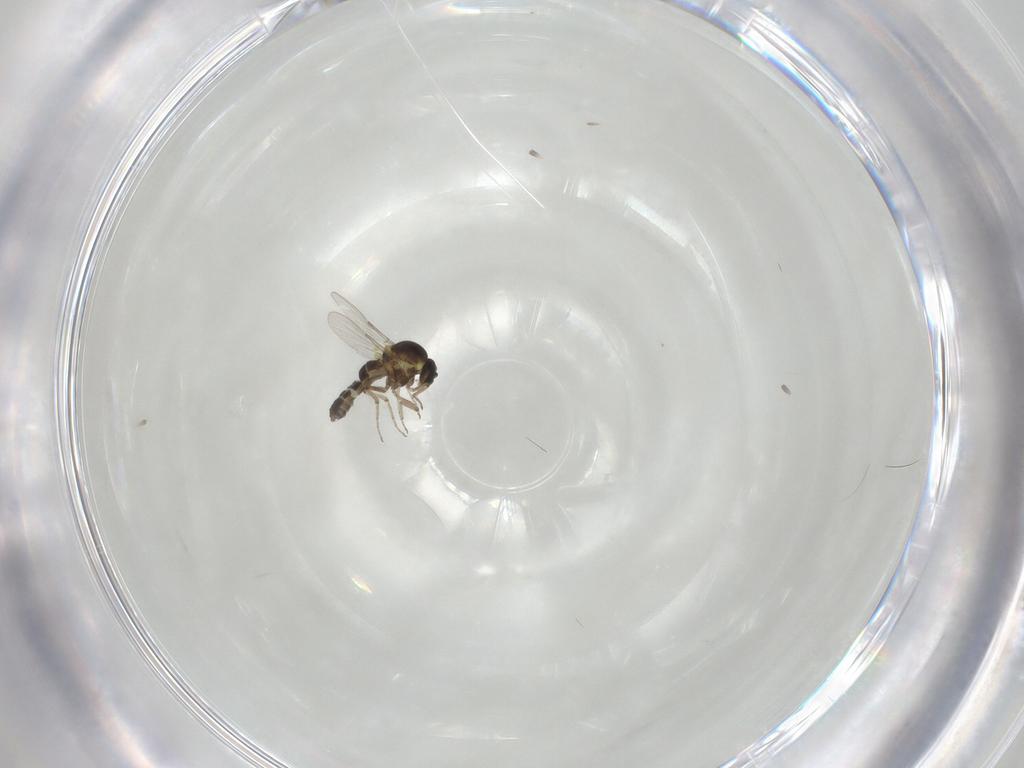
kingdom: Animalia
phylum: Arthropoda
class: Insecta
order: Diptera
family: Ceratopogonidae
